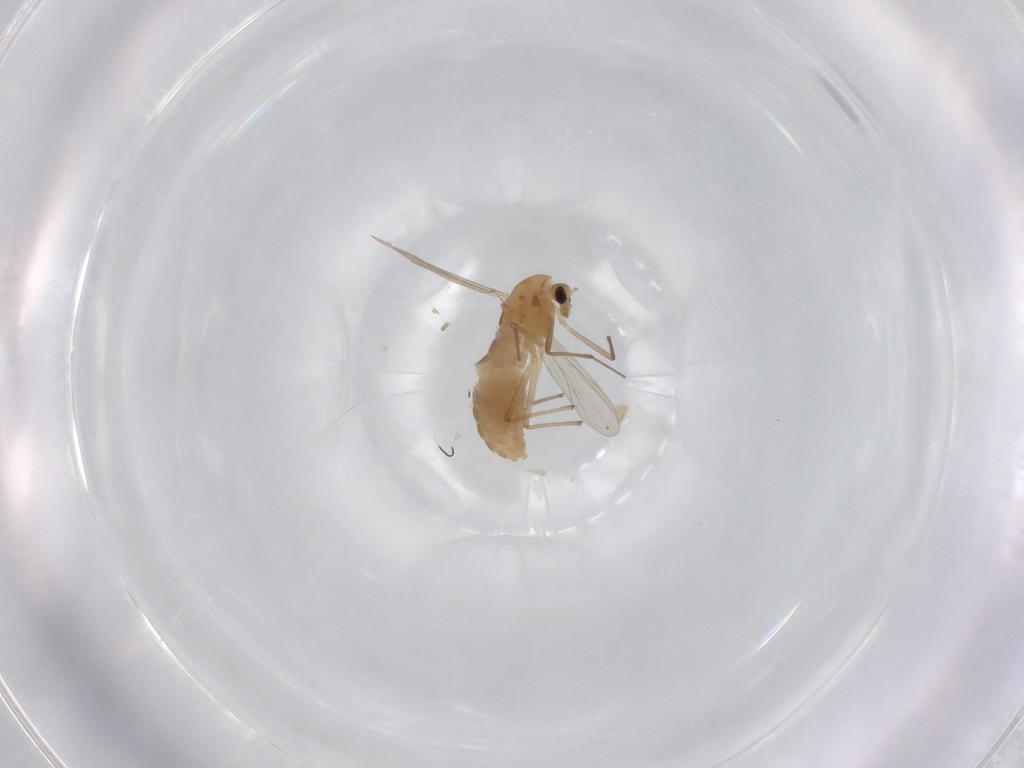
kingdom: Animalia
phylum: Arthropoda
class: Insecta
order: Diptera
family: Chironomidae
